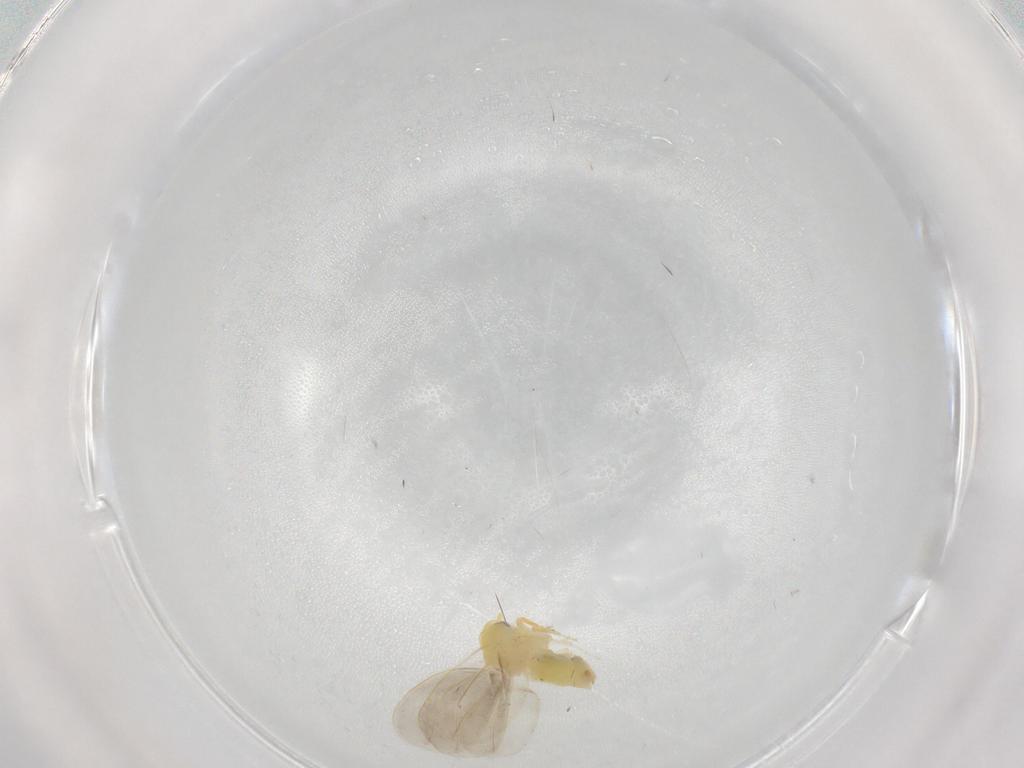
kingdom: Animalia
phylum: Arthropoda
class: Insecta
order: Hemiptera
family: Aleyrodidae
